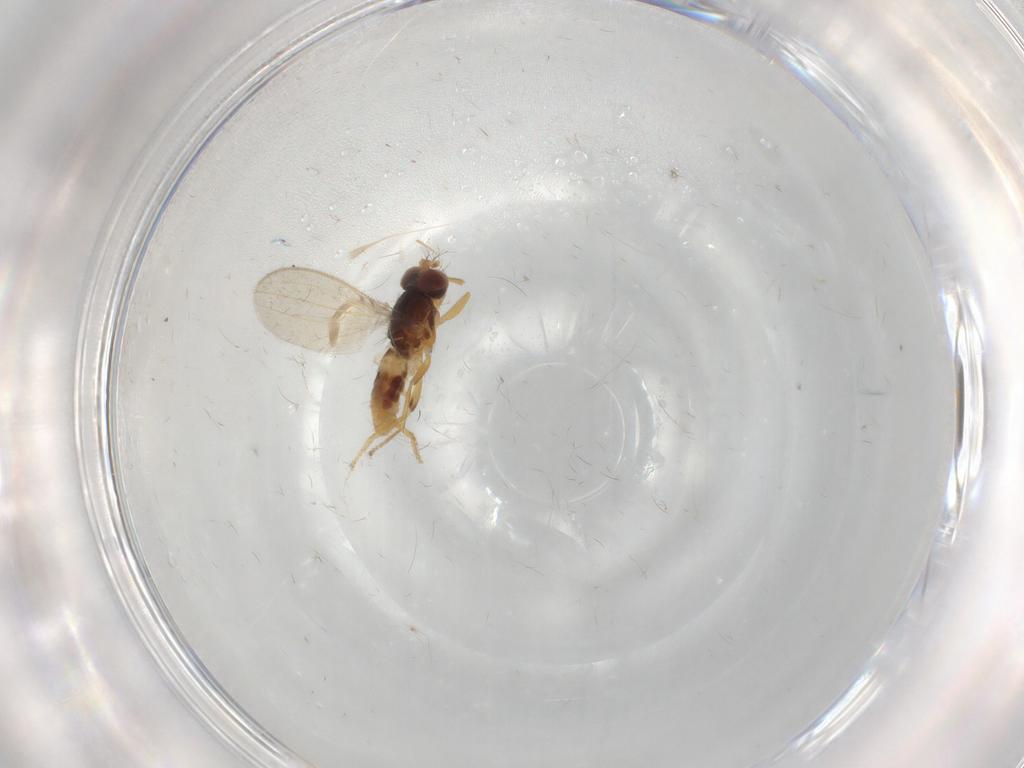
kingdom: Animalia
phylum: Arthropoda
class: Insecta
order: Diptera
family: Periscelididae
